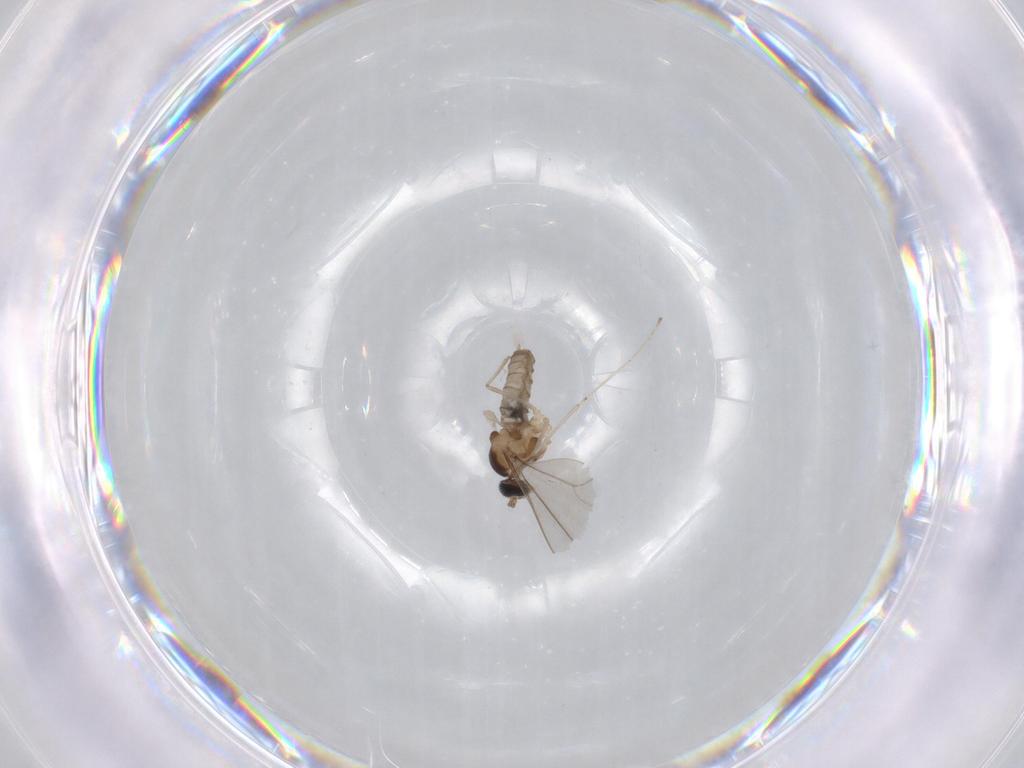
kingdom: Animalia
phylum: Arthropoda
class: Insecta
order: Diptera
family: Cecidomyiidae
